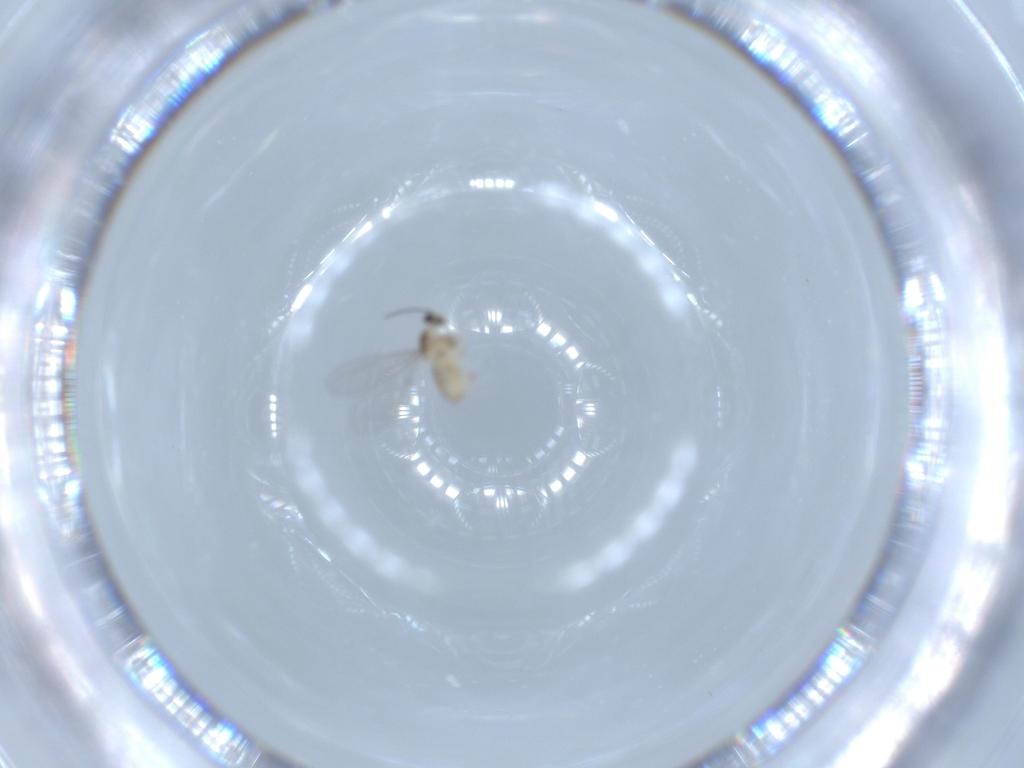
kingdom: Animalia
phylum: Arthropoda
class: Insecta
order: Diptera
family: Cecidomyiidae
